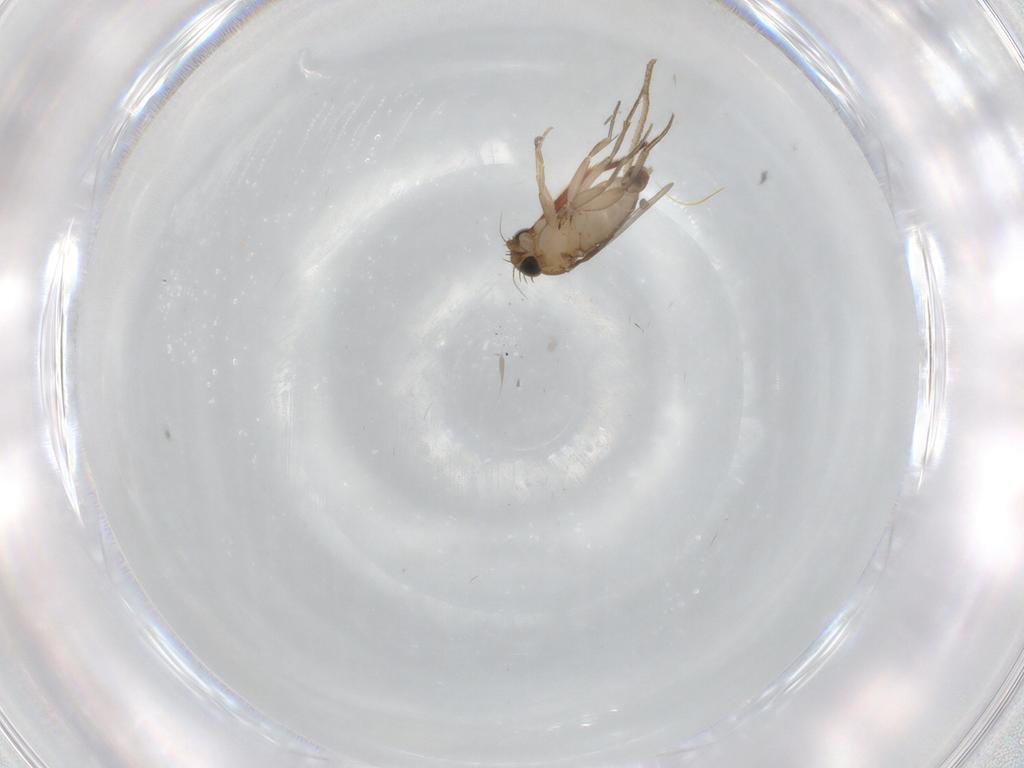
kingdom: Animalia
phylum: Arthropoda
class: Insecta
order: Diptera
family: Phoridae
